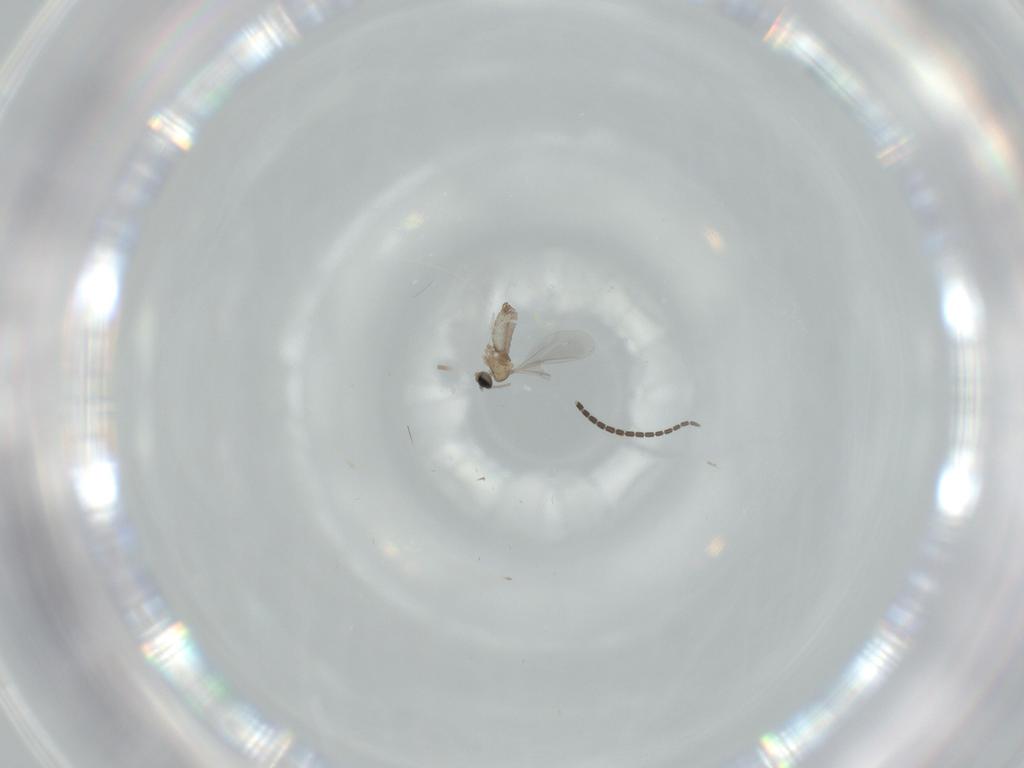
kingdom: Animalia
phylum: Arthropoda
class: Insecta
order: Diptera
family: Cecidomyiidae
